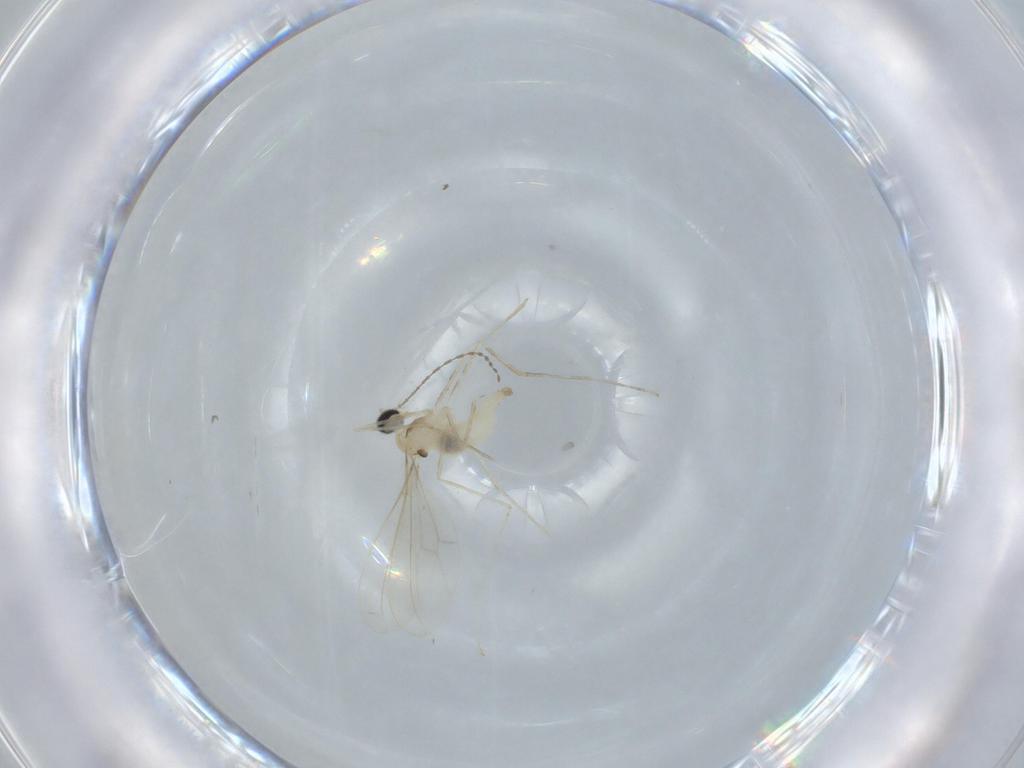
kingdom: Animalia
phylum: Arthropoda
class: Insecta
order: Diptera
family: Cecidomyiidae
